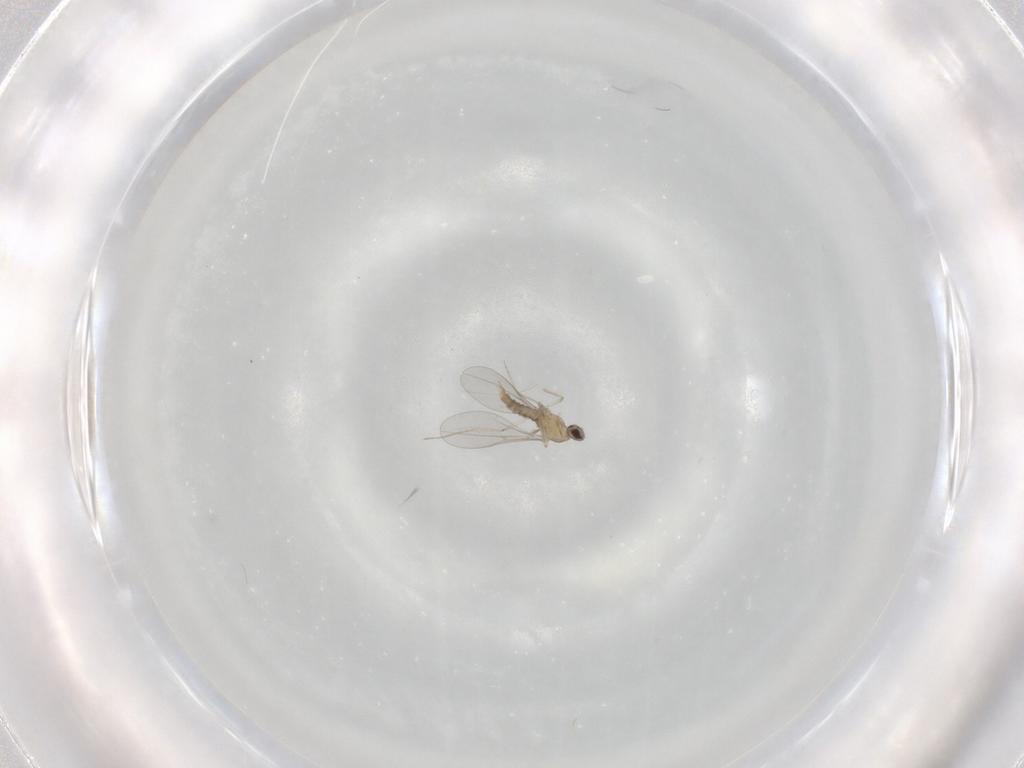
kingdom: Animalia
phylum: Arthropoda
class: Insecta
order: Diptera
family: Cecidomyiidae
